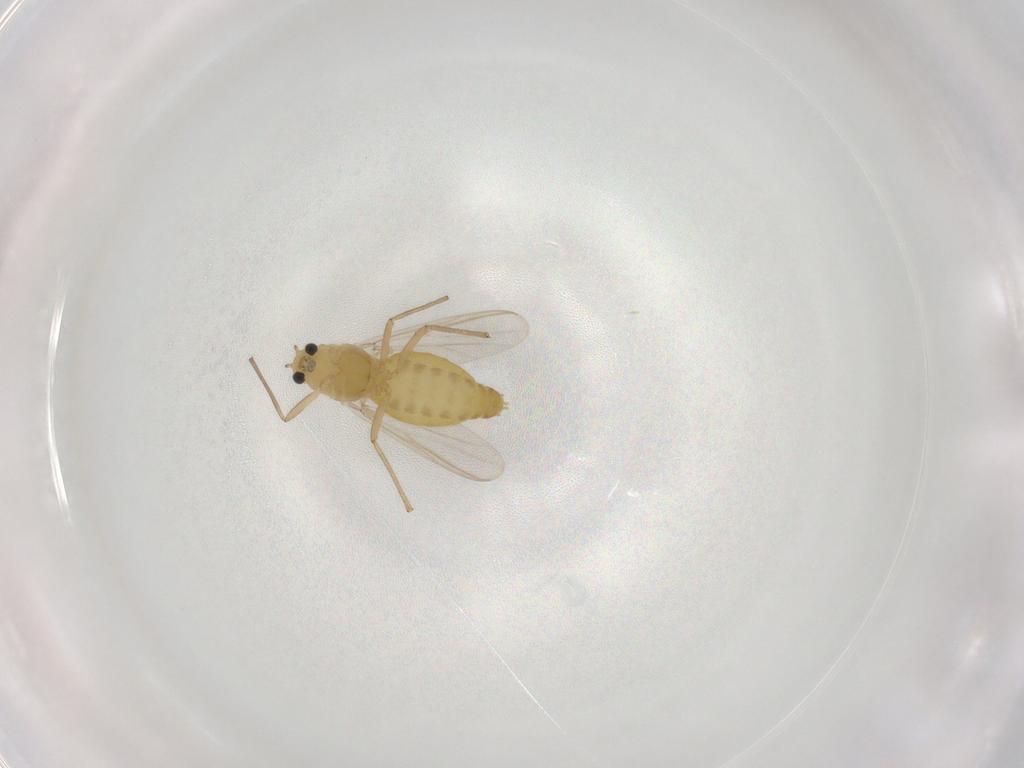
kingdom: Animalia
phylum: Arthropoda
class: Insecta
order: Diptera
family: Chironomidae
